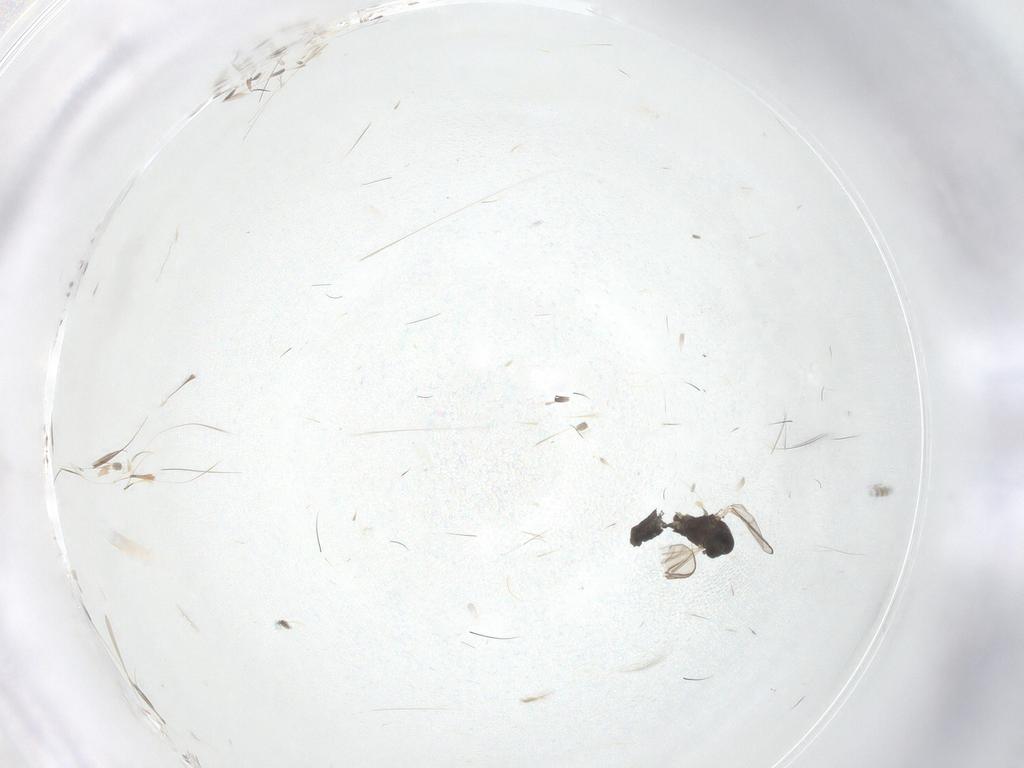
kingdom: Animalia
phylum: Arthropoda
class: Insecta
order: Diptera
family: Chironomidae
